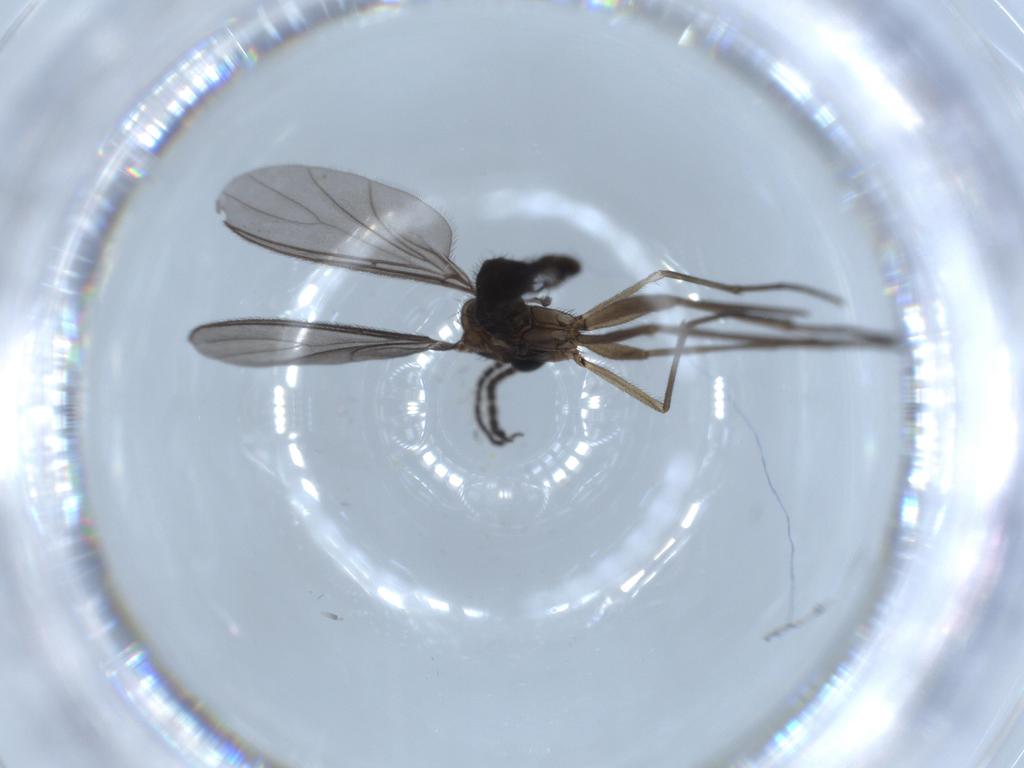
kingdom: Animalia
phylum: Arthropoda
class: Insecta
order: Diptera
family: Sciaridae
